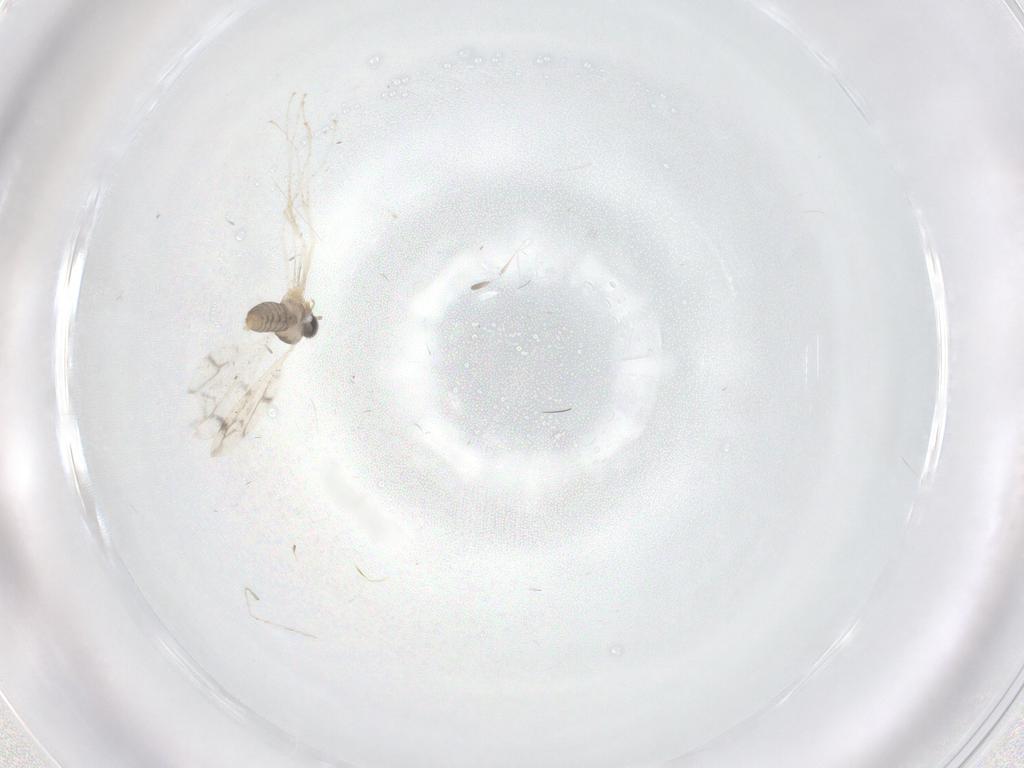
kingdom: Animalia
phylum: Arthropoda
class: Insecta
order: Diptera
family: Cecidomyiidae
